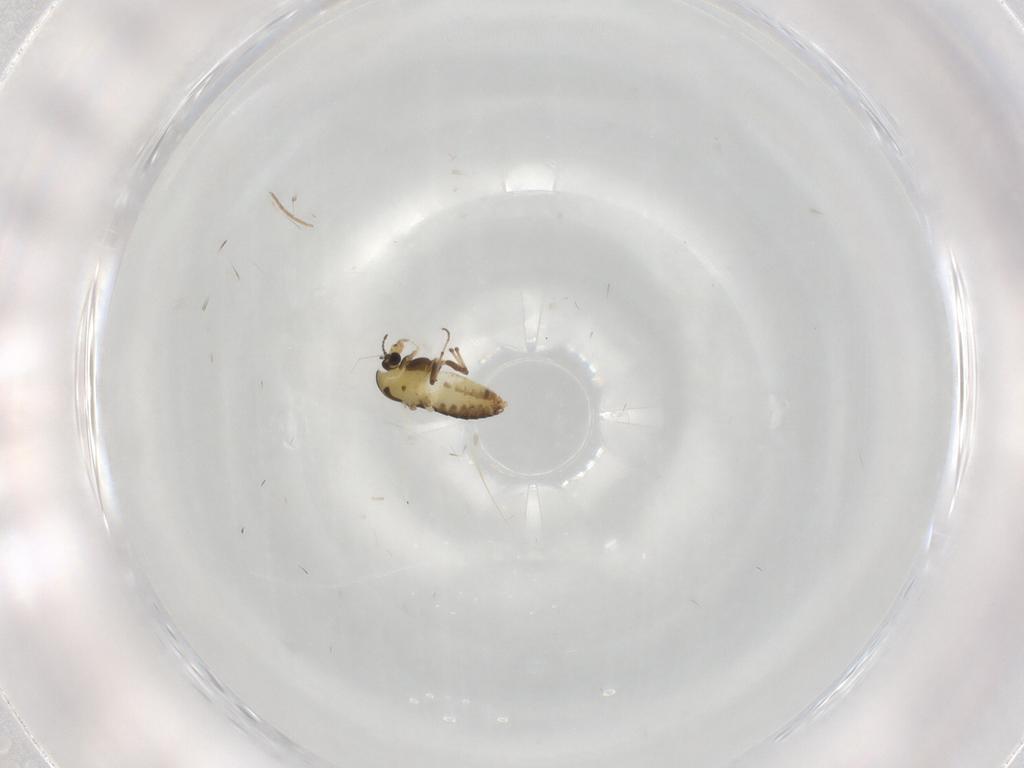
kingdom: Animalia
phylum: Arthropoda
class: Insecta
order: Diptera
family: Chironomidae
